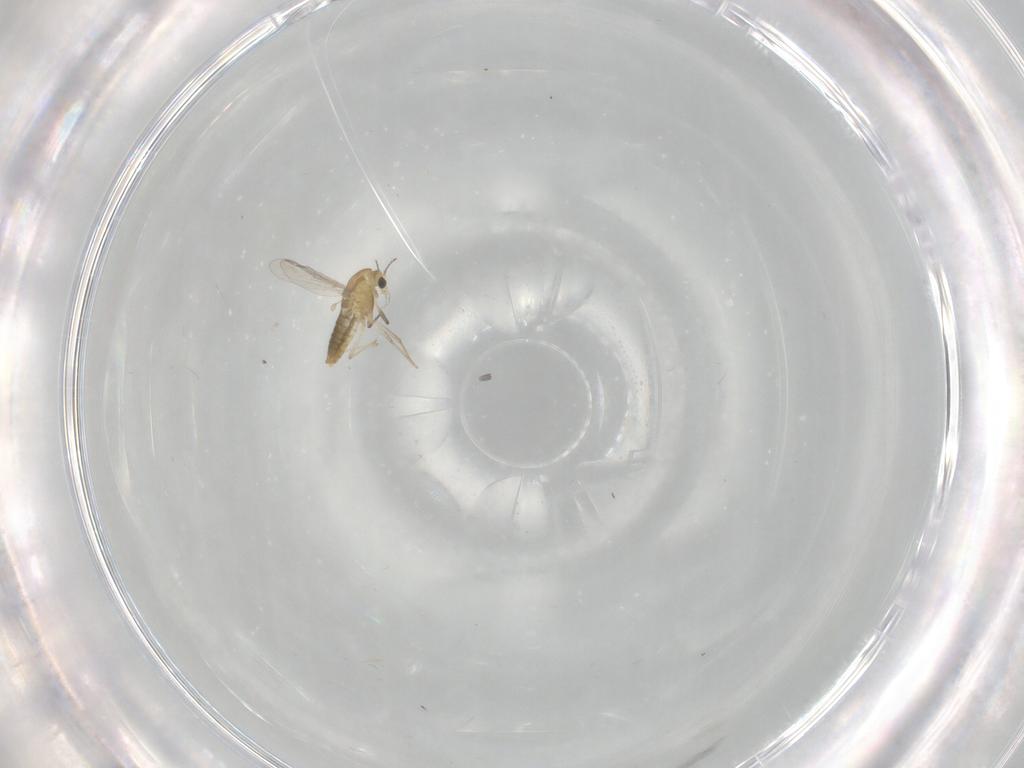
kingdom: Animalia
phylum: Arthropoda
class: Insecta
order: Diptera
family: Chironomidae
